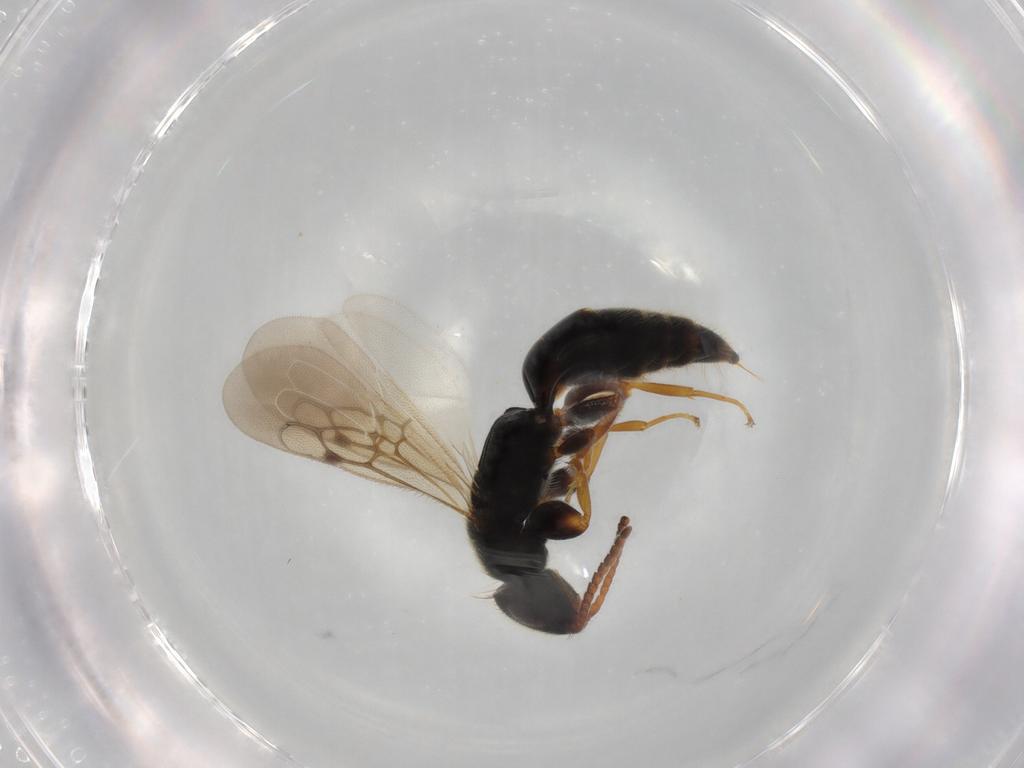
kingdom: Animalia
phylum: Arthropoda
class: Insecta
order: Hymenoptera
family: Bethylidae
